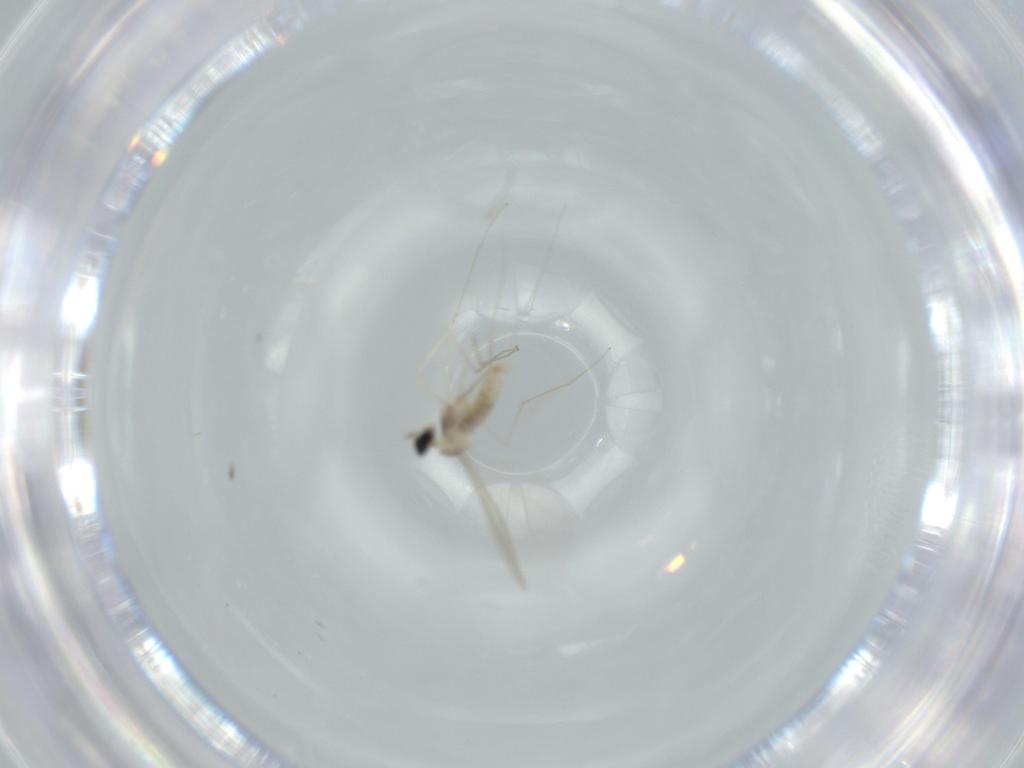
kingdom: Animalia
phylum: Arthropoda
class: Insecta
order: Diptera
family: Cecidomyiidae
